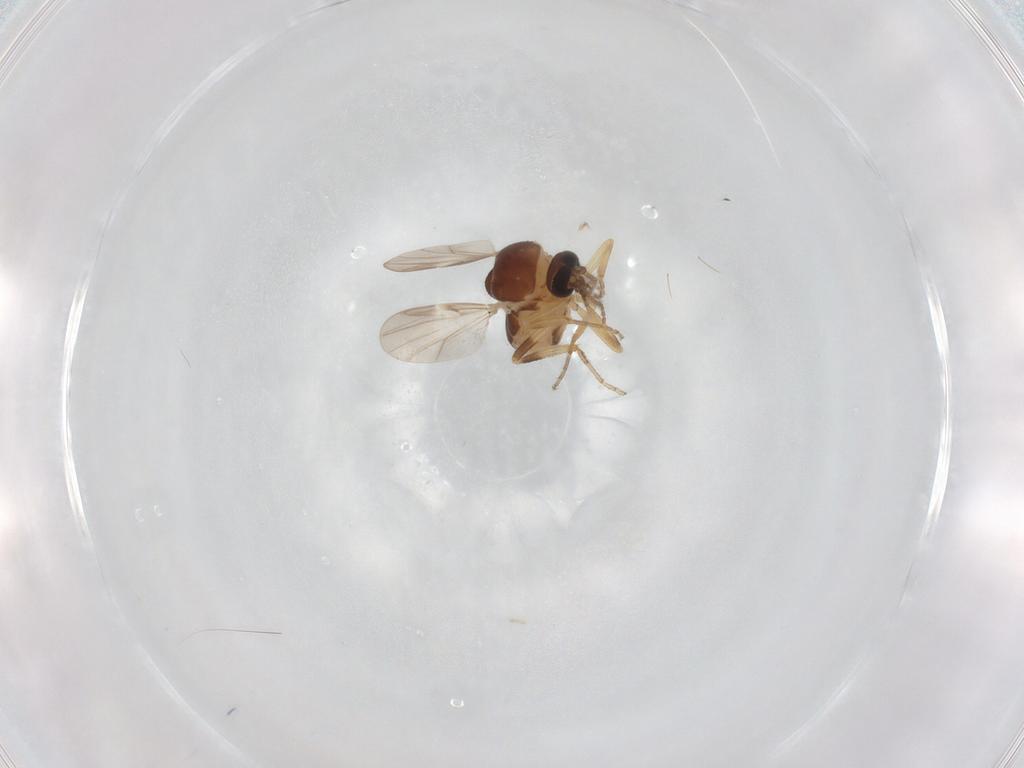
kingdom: Animalia
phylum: Arthropoda
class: Insecta
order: Diptera
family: Ceratopogonidae
